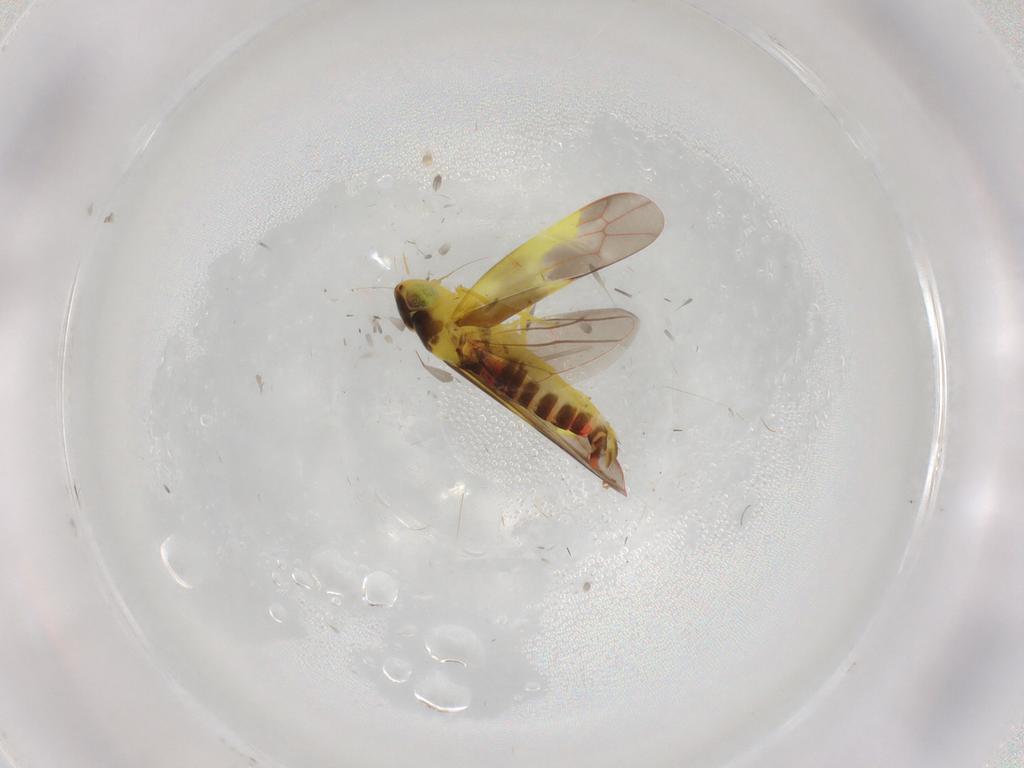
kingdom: Animalia
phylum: Arthropoda
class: Insecta
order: Hemiptera
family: Cicadellidae
